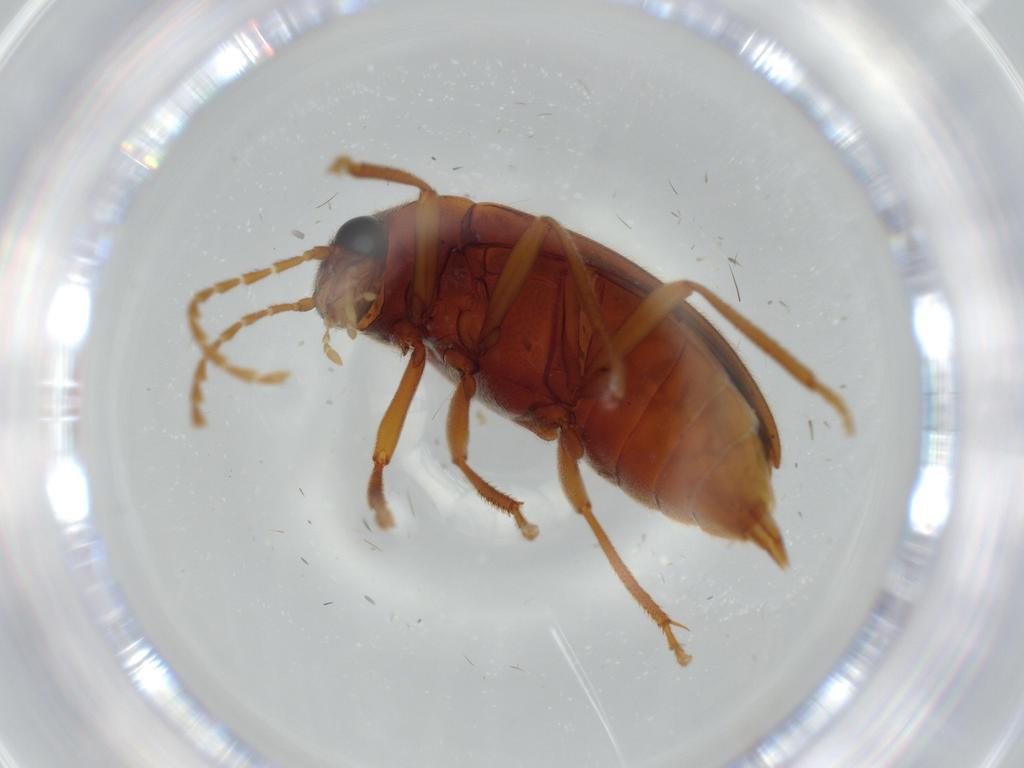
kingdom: Animalia
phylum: Arthropoda
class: Insecta
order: Coleoptera
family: Ptilodactylidae
